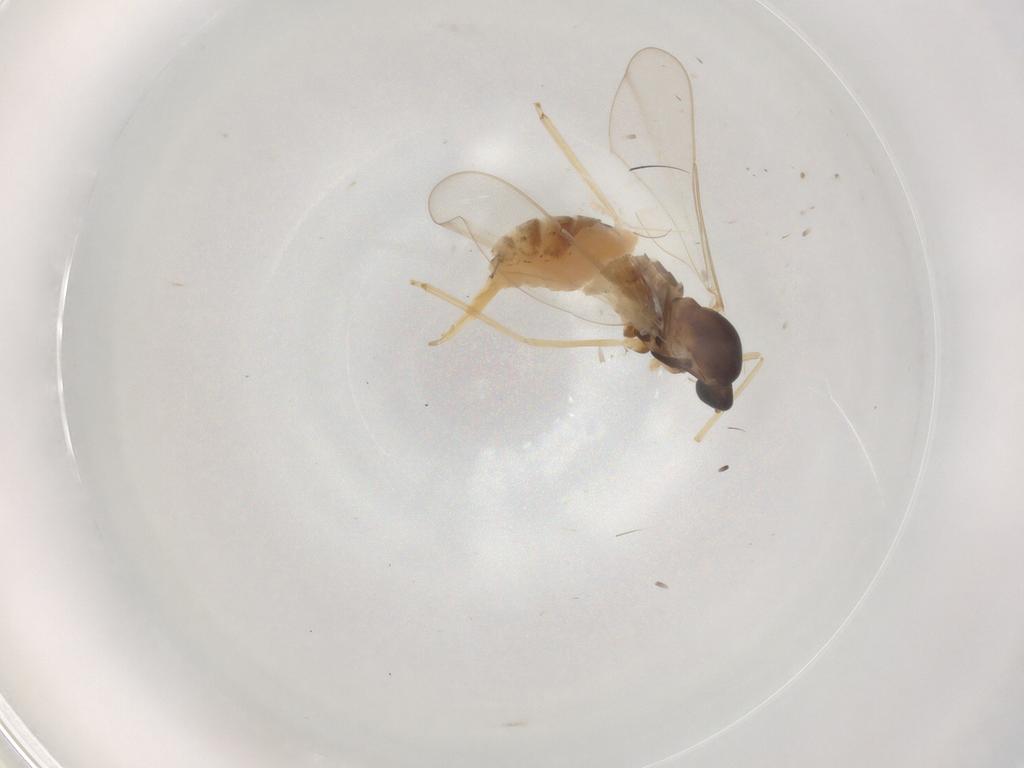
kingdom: Animalia
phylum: Arthropoda
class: Insecta
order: Diptera
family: Cecidomyiidae
